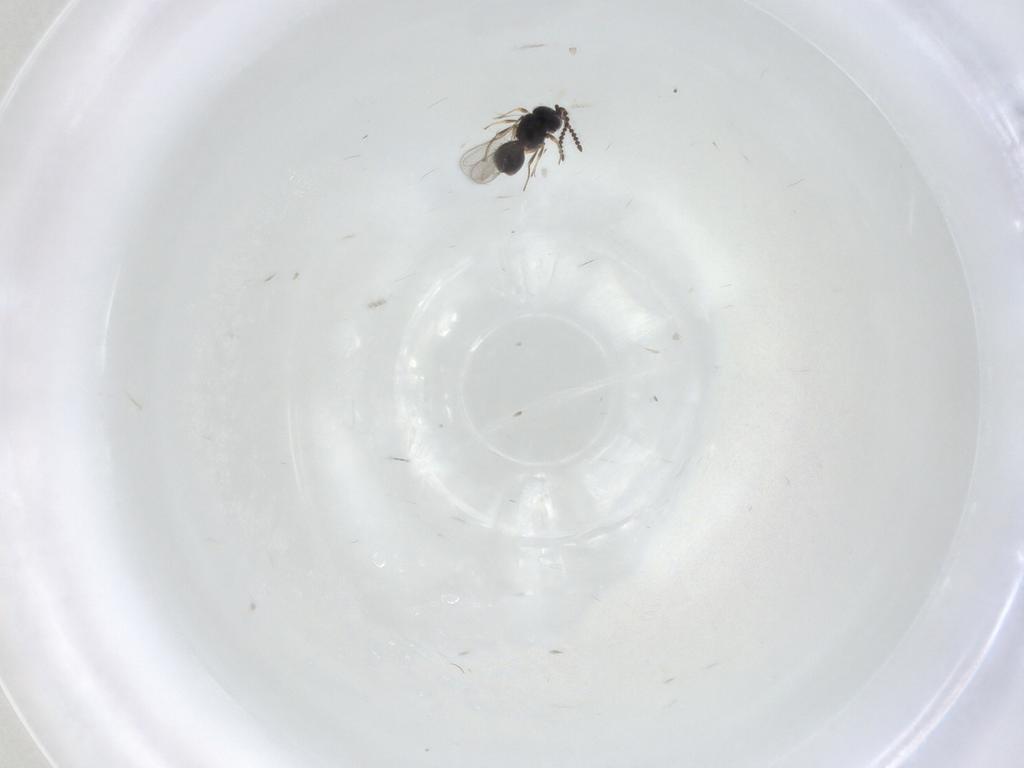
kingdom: Animalia
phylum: Arthropoda
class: Insecta
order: Hymenoptera
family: Scelionidae
